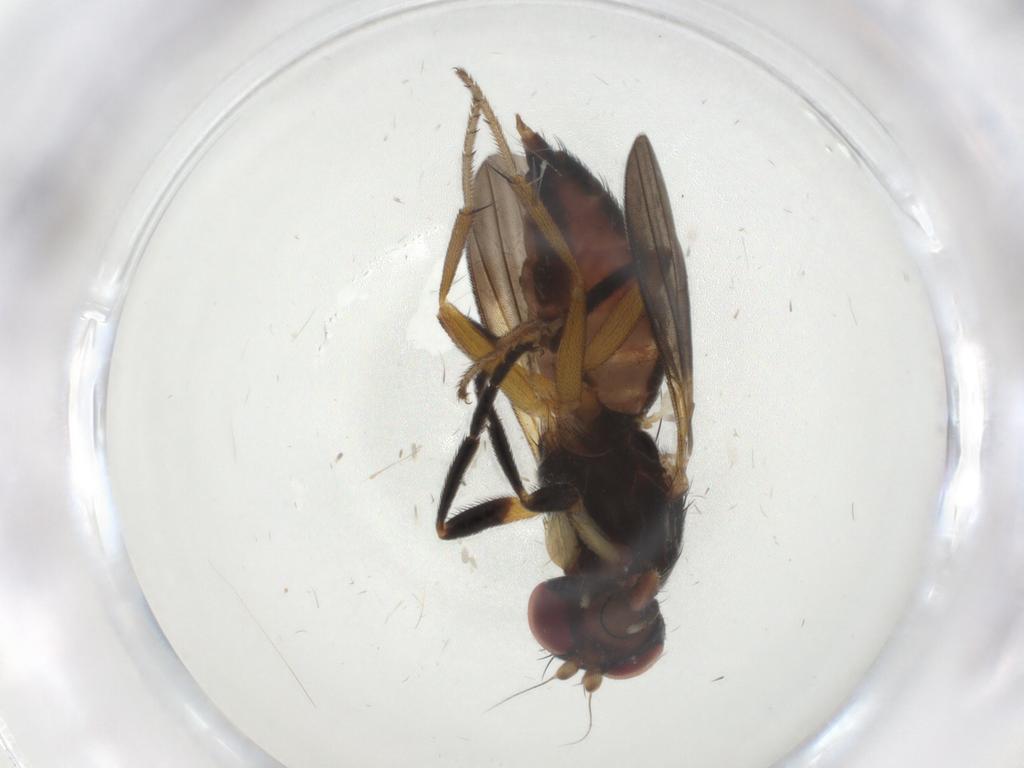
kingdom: Animalia
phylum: Arthropoda
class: Insecta
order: Diptera
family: Clusiidae
